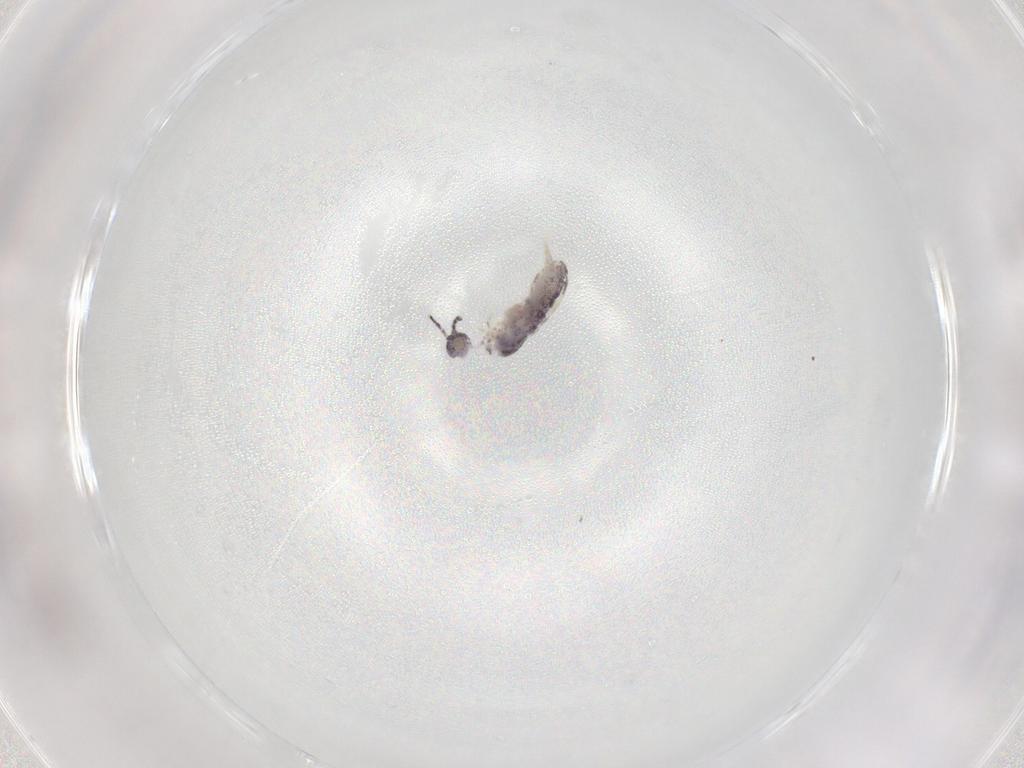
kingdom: Animalia
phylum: Arthropoda
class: Collembola
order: Entomobryomorpha
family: Isotomidae
